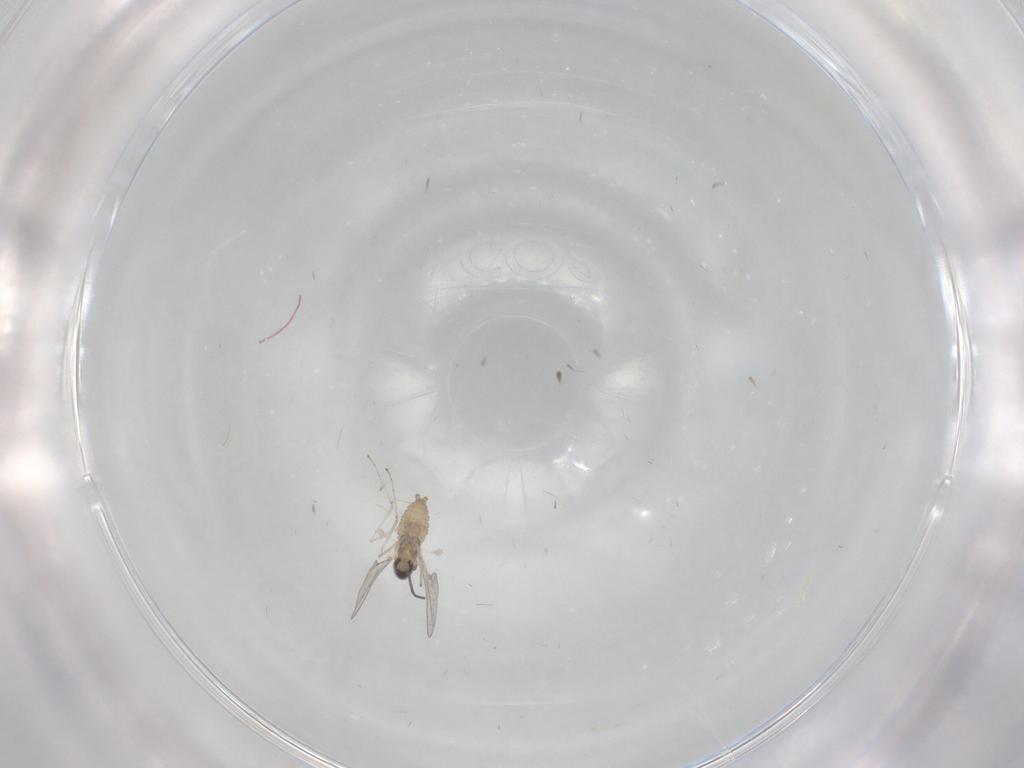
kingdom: Animalia
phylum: Arthropoda
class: Insecta
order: Diptera
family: Cecidomyiidae
